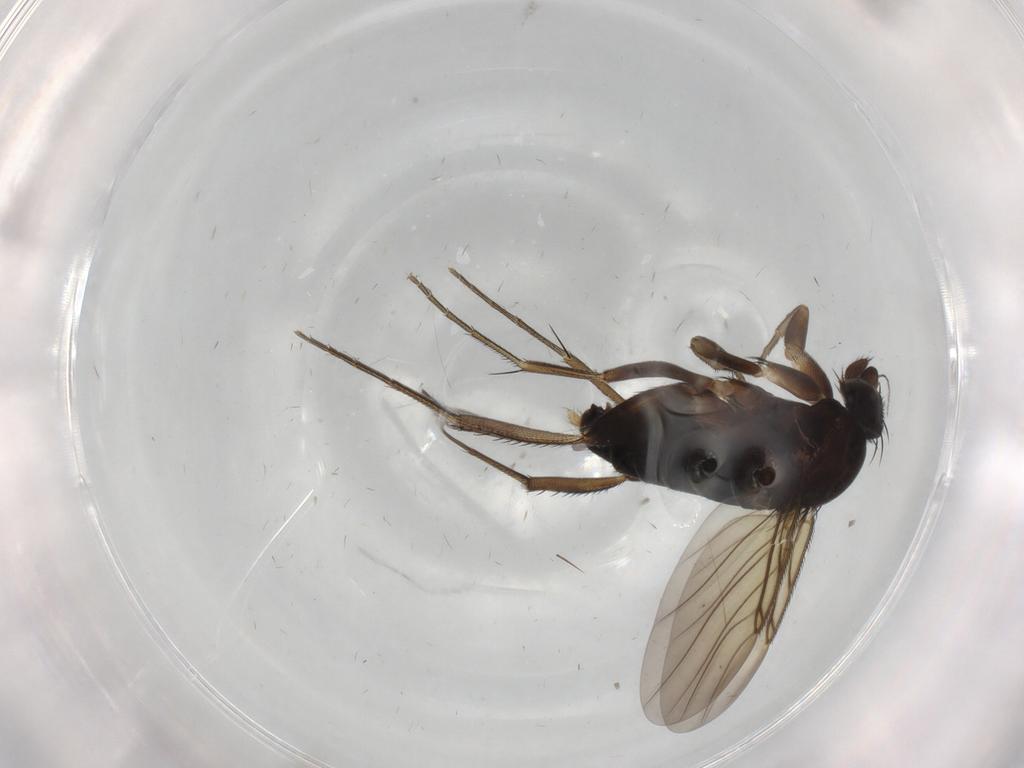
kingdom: Animalia
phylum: Arthropoda
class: Insecta
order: Diptera
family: Phoridae
